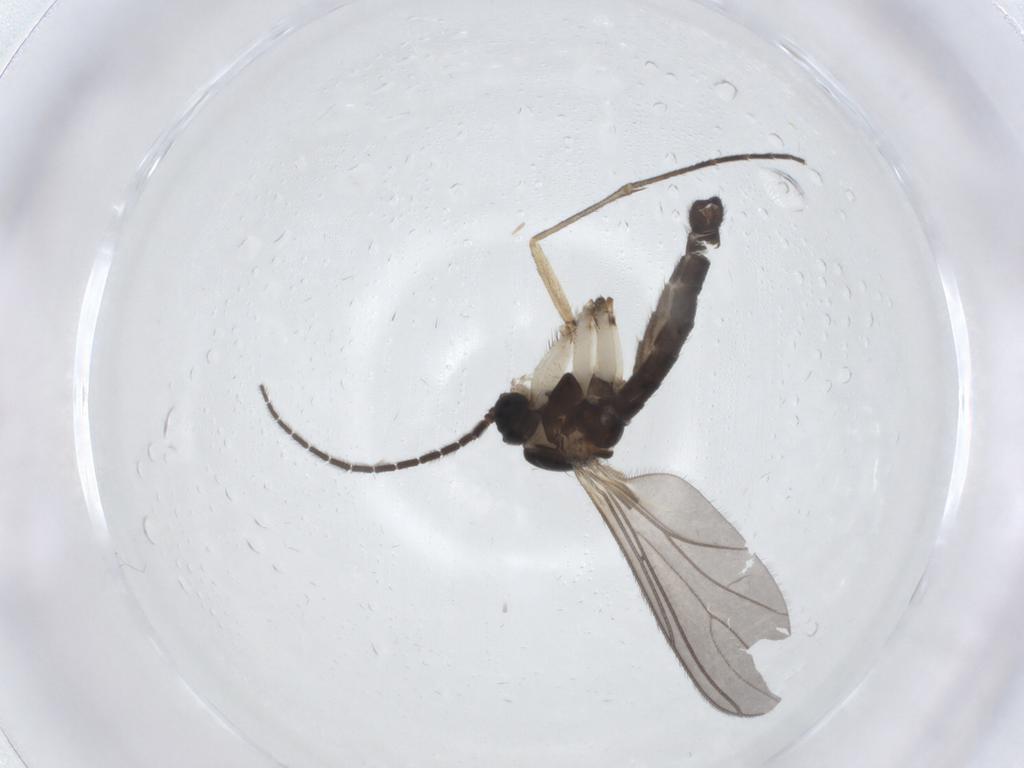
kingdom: Animalia
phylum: Arthropoda
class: Insecta
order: Diptera
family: Sciaridae
